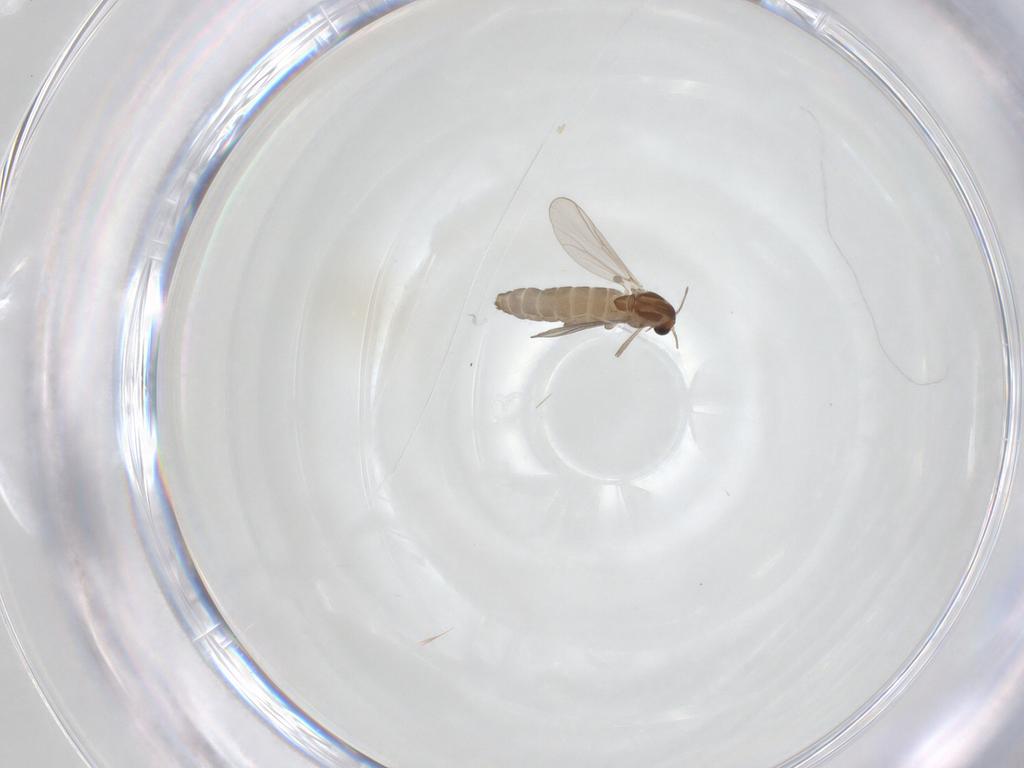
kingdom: Animalia
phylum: Arthropoda
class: Insecta
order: Diptera
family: Chironomidae
